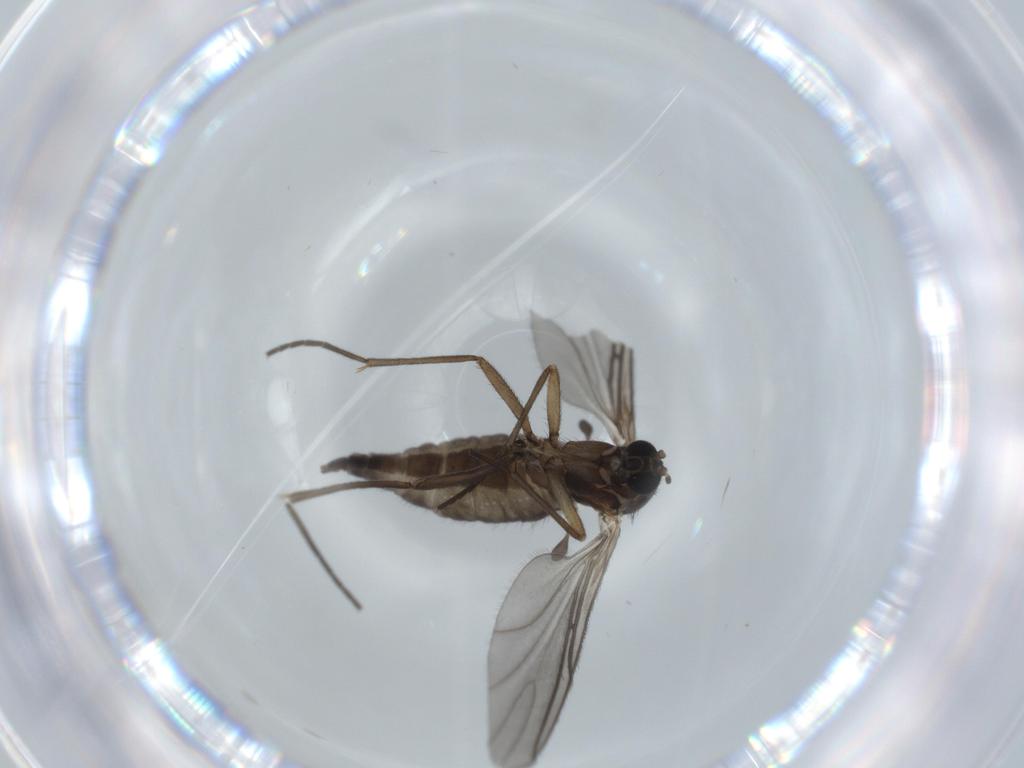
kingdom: Animalia
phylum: Arthropoda
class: Insecta
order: Diptera
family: Sciaridae
